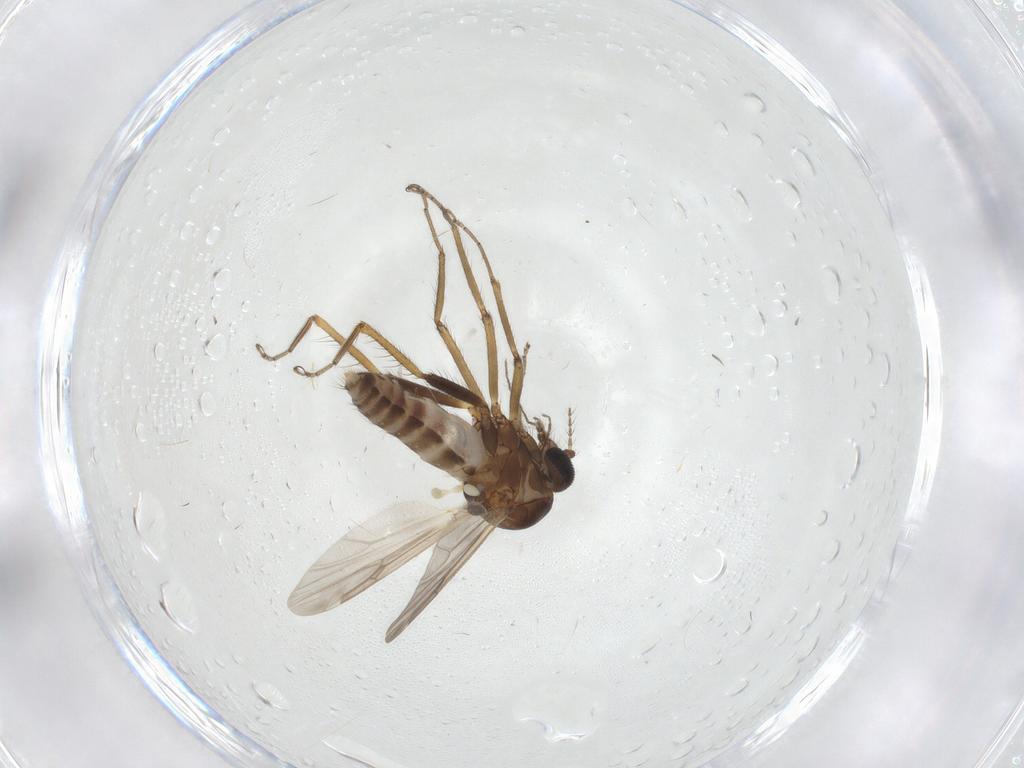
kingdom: Animalia
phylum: Arthropoda
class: Insecta
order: Diptera
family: Ceratopogonidae
